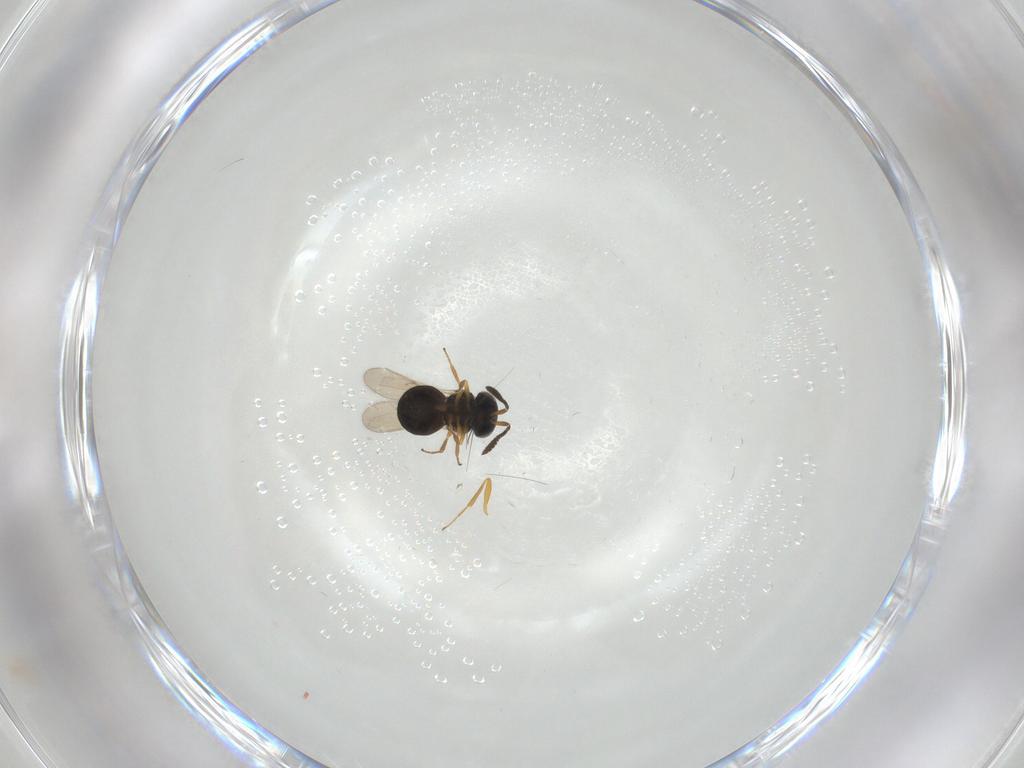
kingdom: Animalia
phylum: Arthropoda
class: Insecta
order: Hymenoptera
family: Scelionidae
